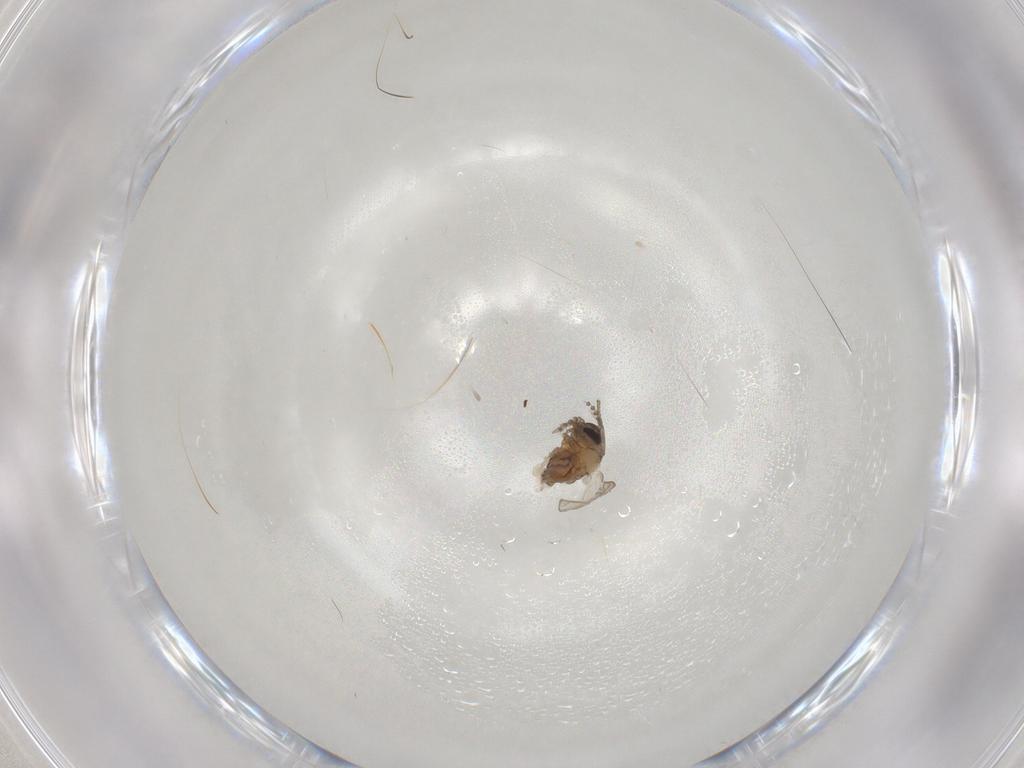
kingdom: Animalia
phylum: Arthropoda
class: Insecta
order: Diptera
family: Psychodidae
